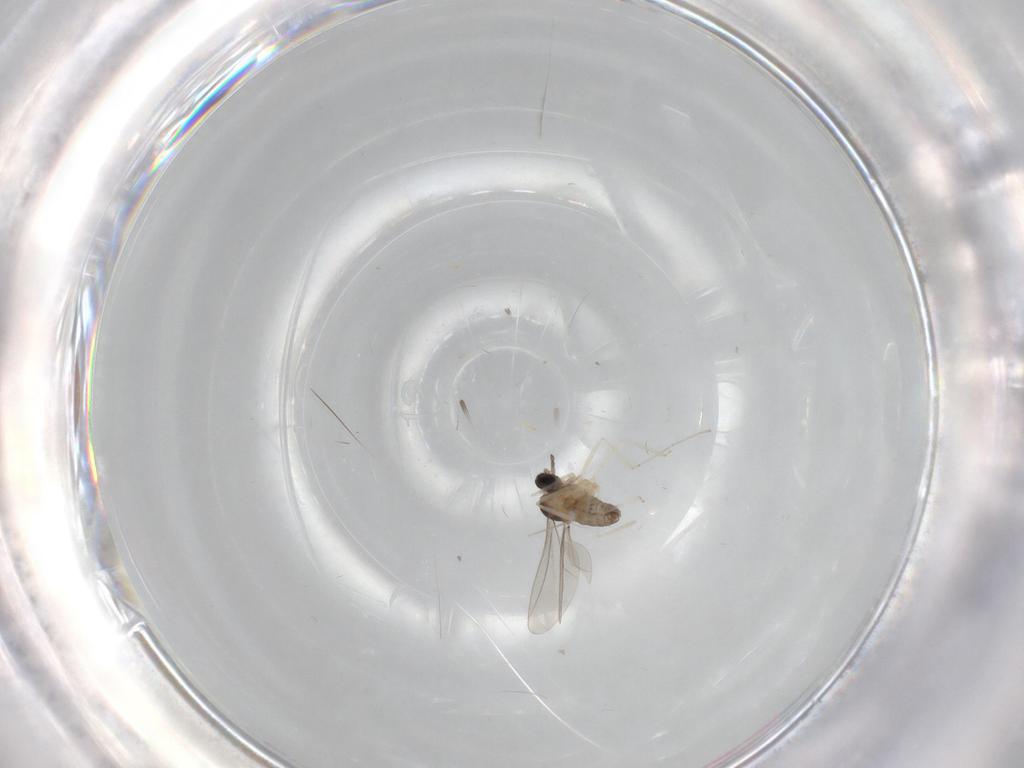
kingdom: Animalia
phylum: Arthropoda
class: Insecta
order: Diptera
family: Cecidomyiidae
